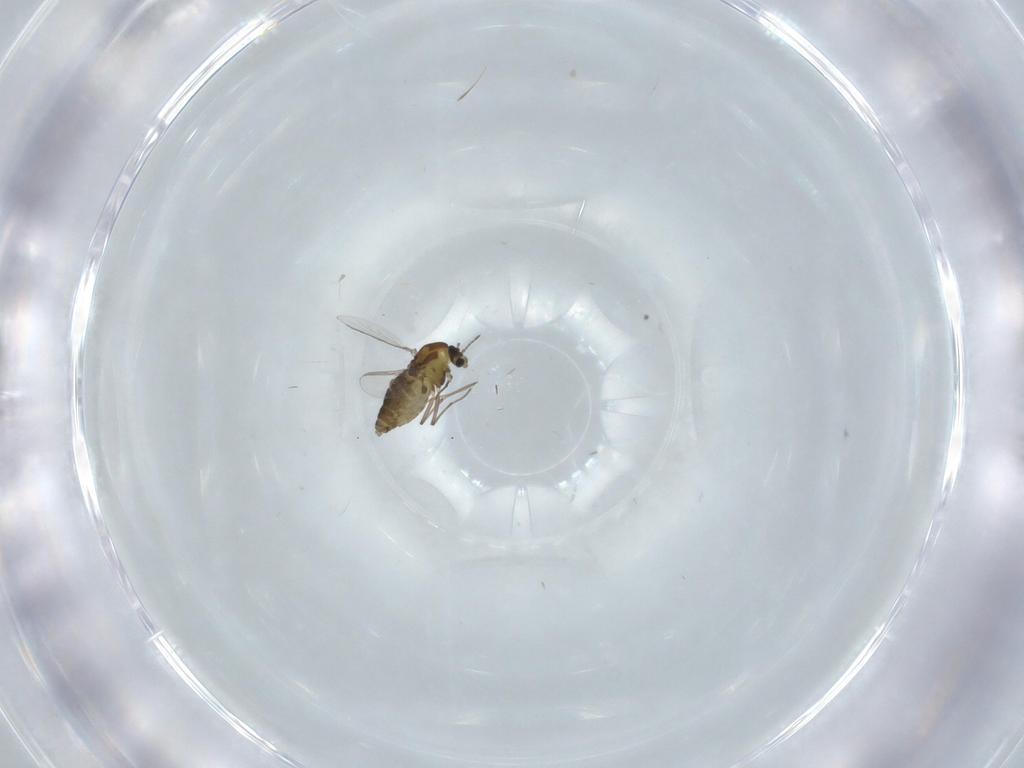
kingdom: Animalia
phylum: Arthropoda
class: Insecta
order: Diptera
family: Chironomidae
